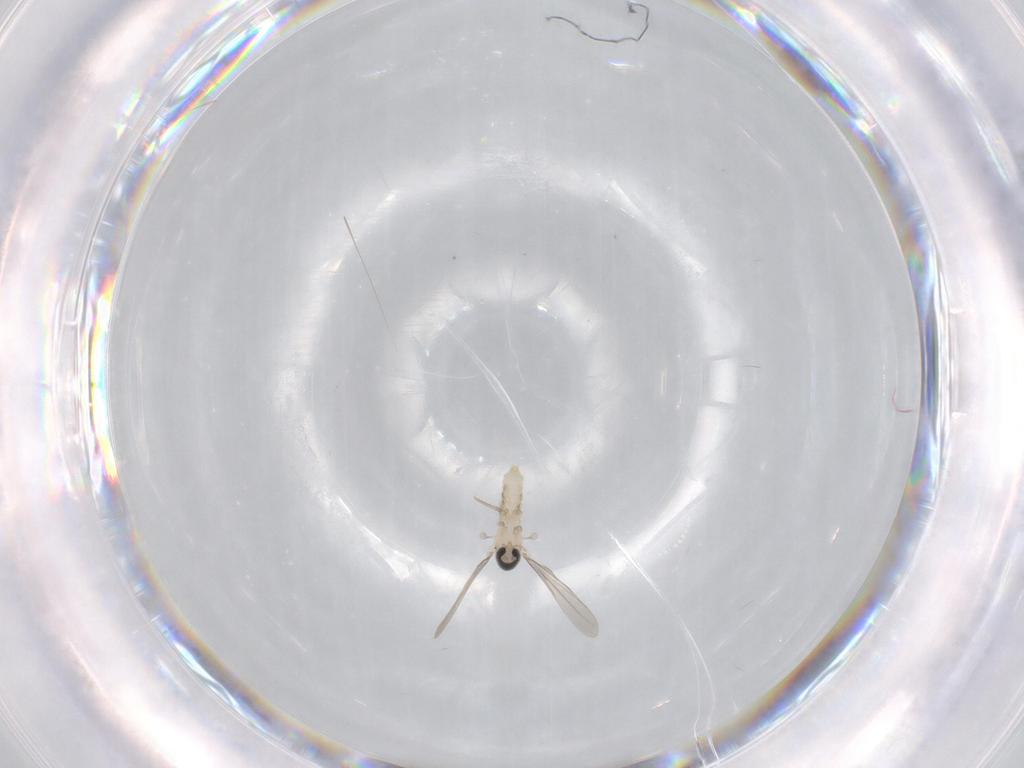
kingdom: Animalia
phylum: Arthropoda
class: Insecta
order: Diptera
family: Cecidomyiidae
